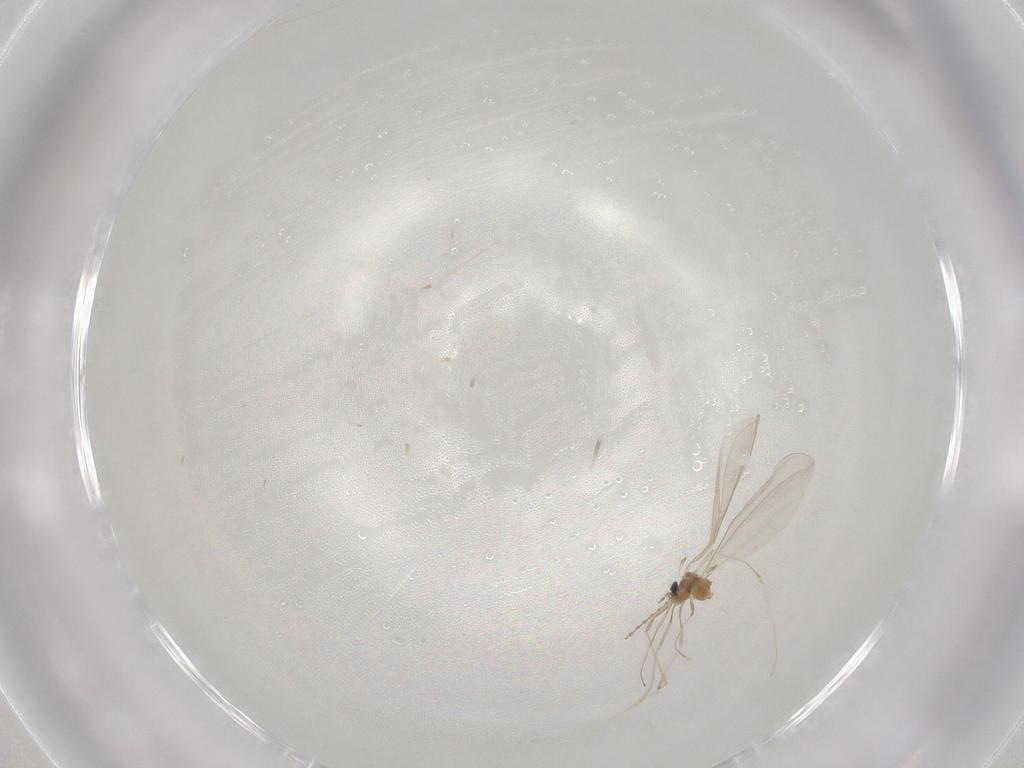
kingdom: Animalia
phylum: Arthropoda
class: Insecta
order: Diptera
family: Cecidomyiidae
